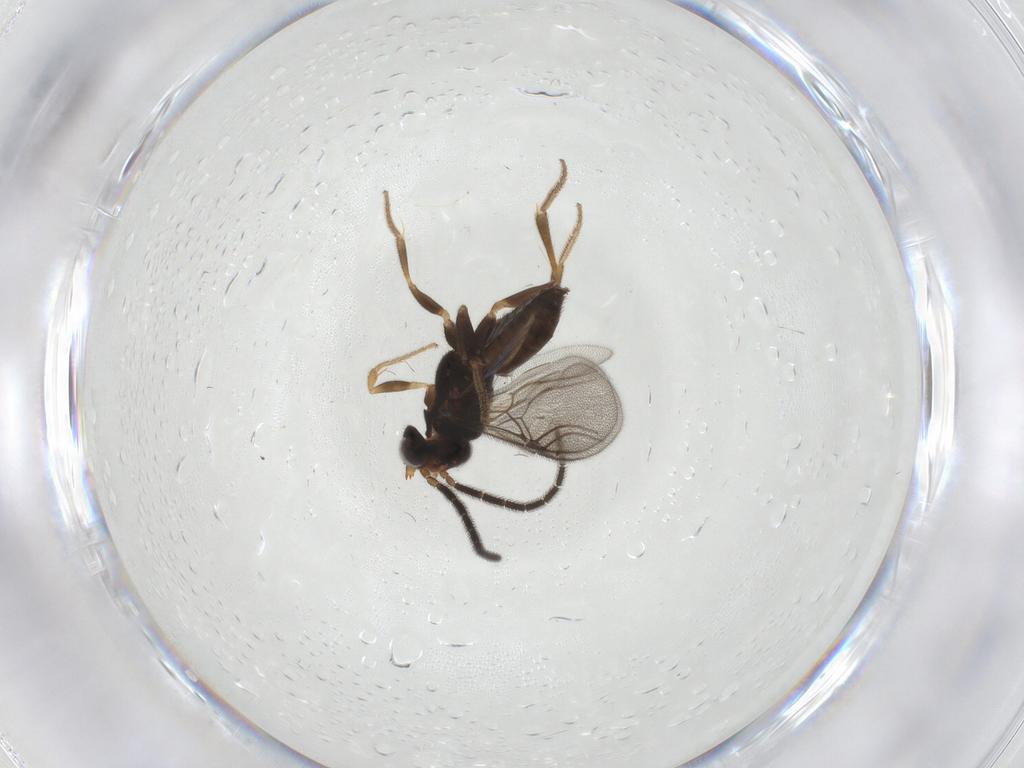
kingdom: Animalia
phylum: Arthropoda
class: Insecta
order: Hymenoptera
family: Dryinidae
